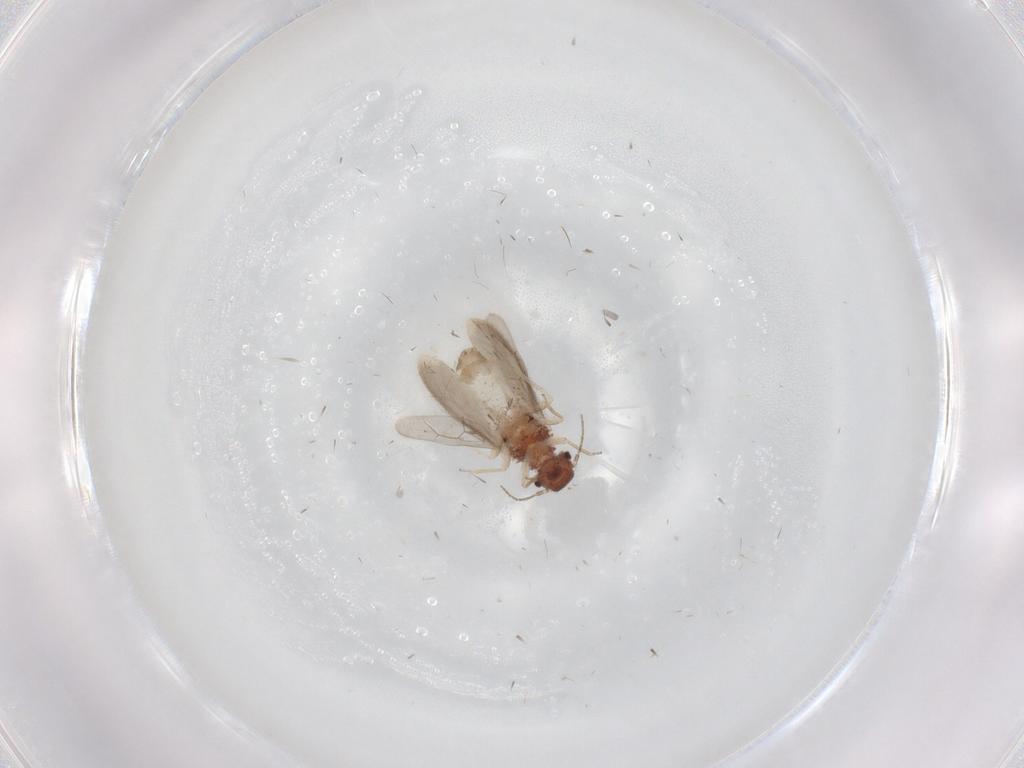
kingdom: Animalia
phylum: Arthropoda
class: Insecta
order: Psocodea
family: Archipsocidae
